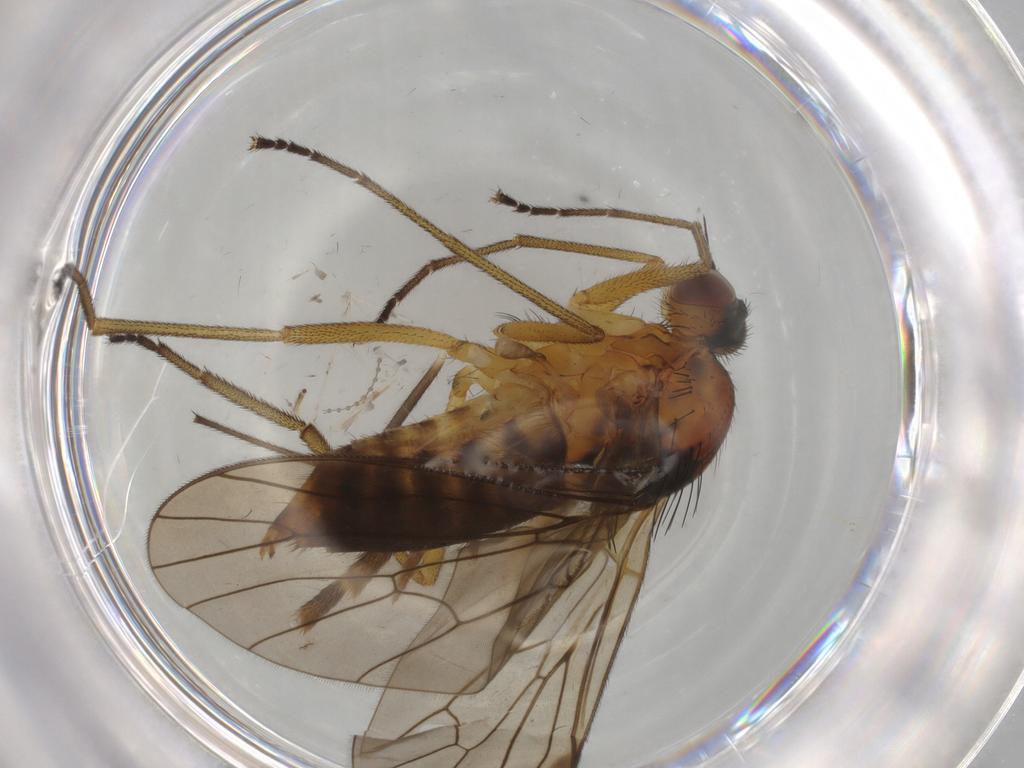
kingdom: Animalia
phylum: Arthropoda
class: Insecta
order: Diptera
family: Brachystomatidae
